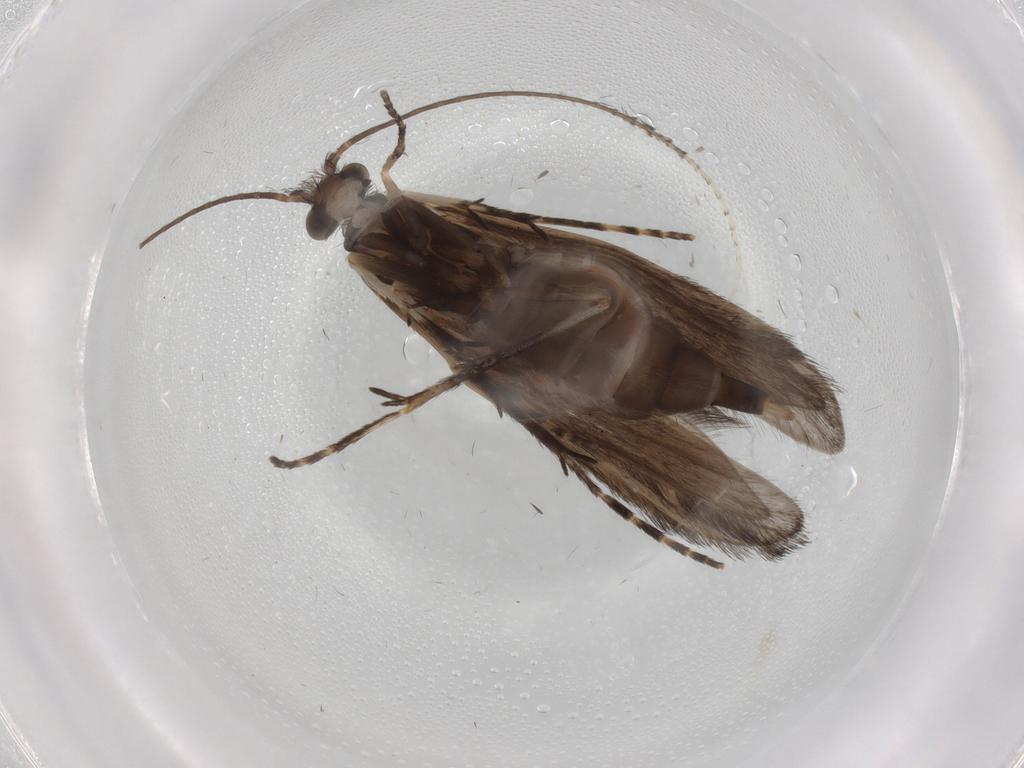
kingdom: Animalia
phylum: Arthropoda
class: Insecta
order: Trichoptera
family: Xiphocentronidae
